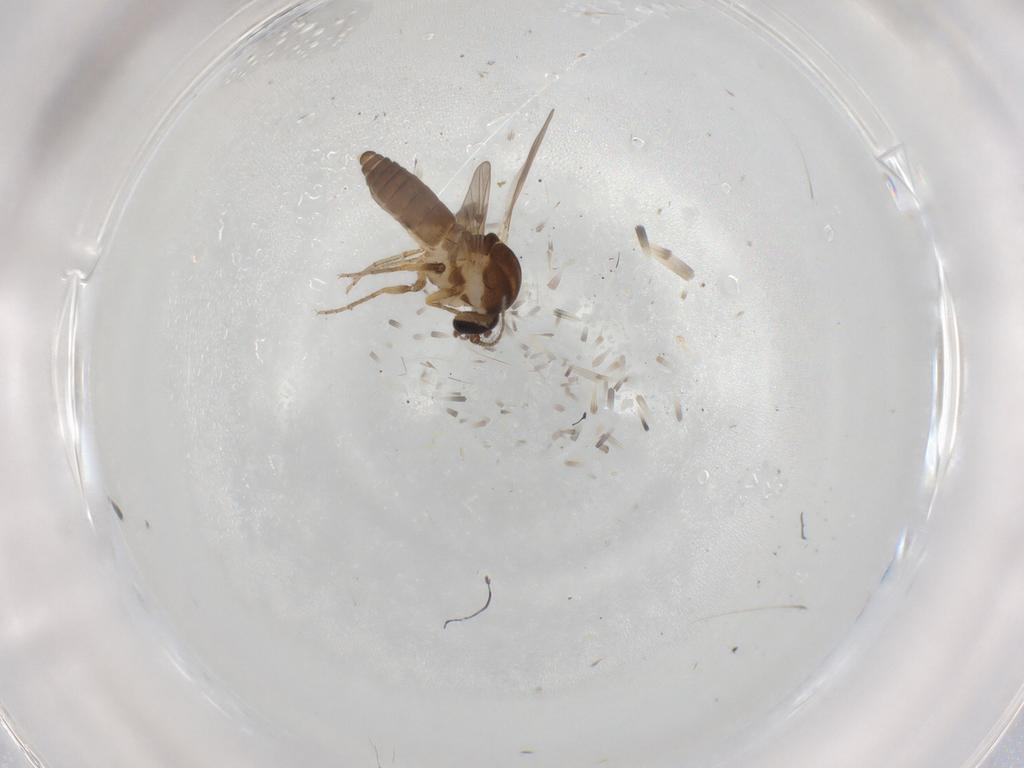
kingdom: Animalia
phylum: Arthropoda
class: Insecta
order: Diptera
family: Ceratopogonidae
